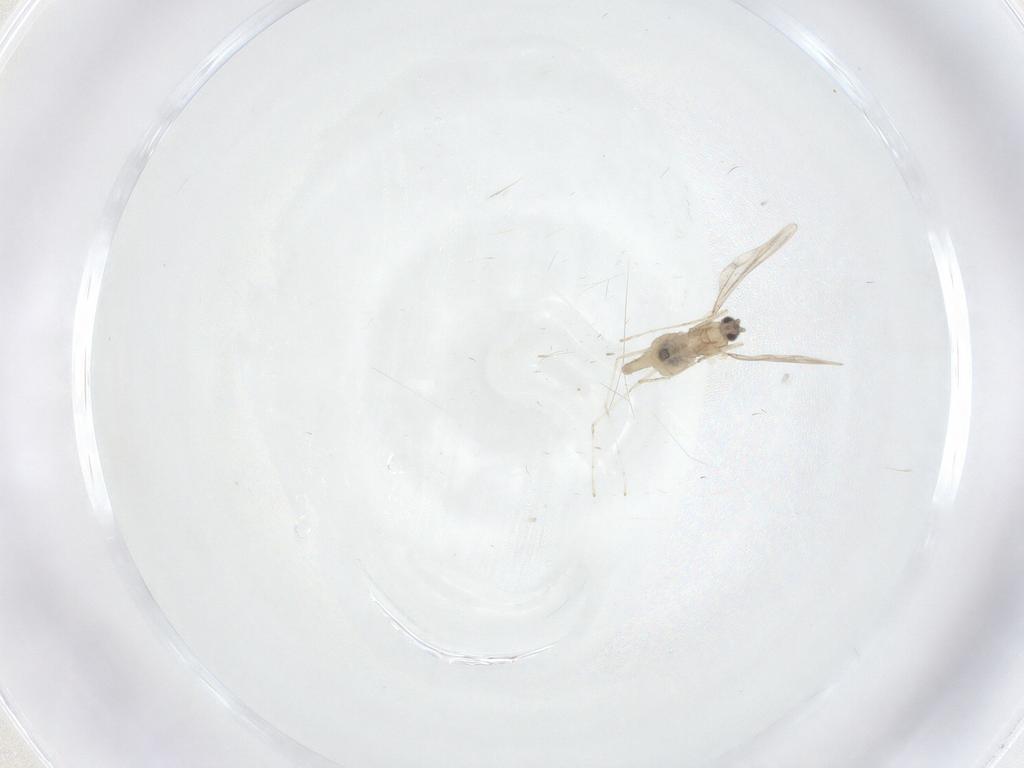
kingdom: Animalia
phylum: Arthropoda
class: Insecta
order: Diptera
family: Cecidomyiidae
